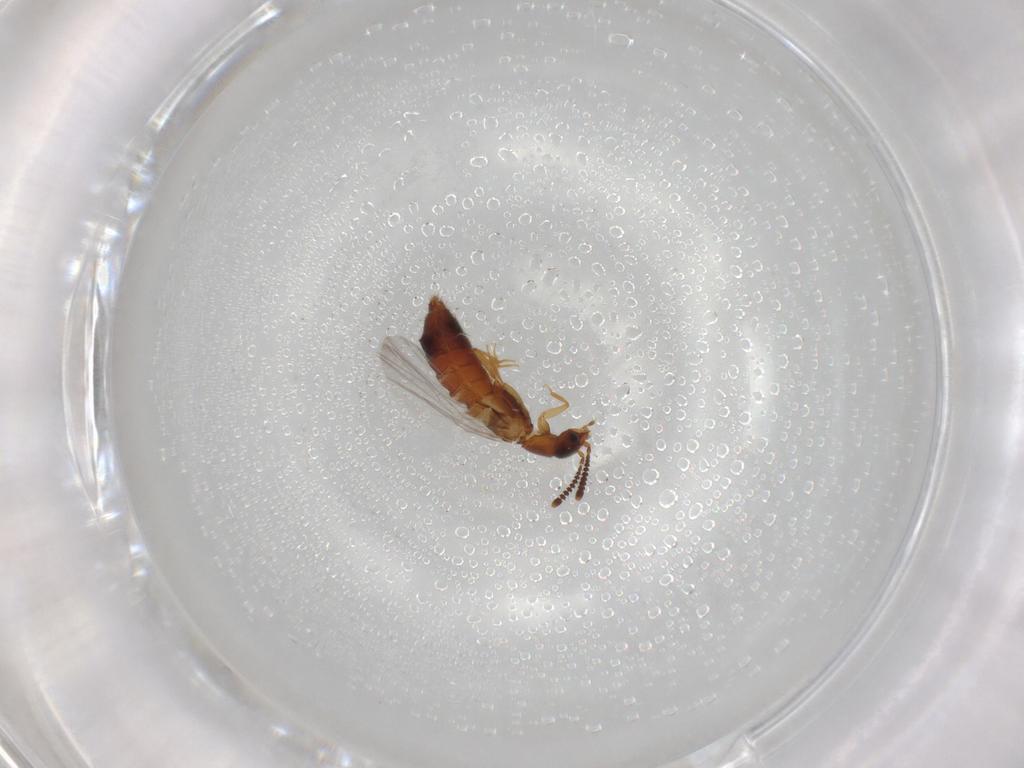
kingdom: Animalia
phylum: Arthropoda
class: Insecta
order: Coleoptera
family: Staphylinidae
